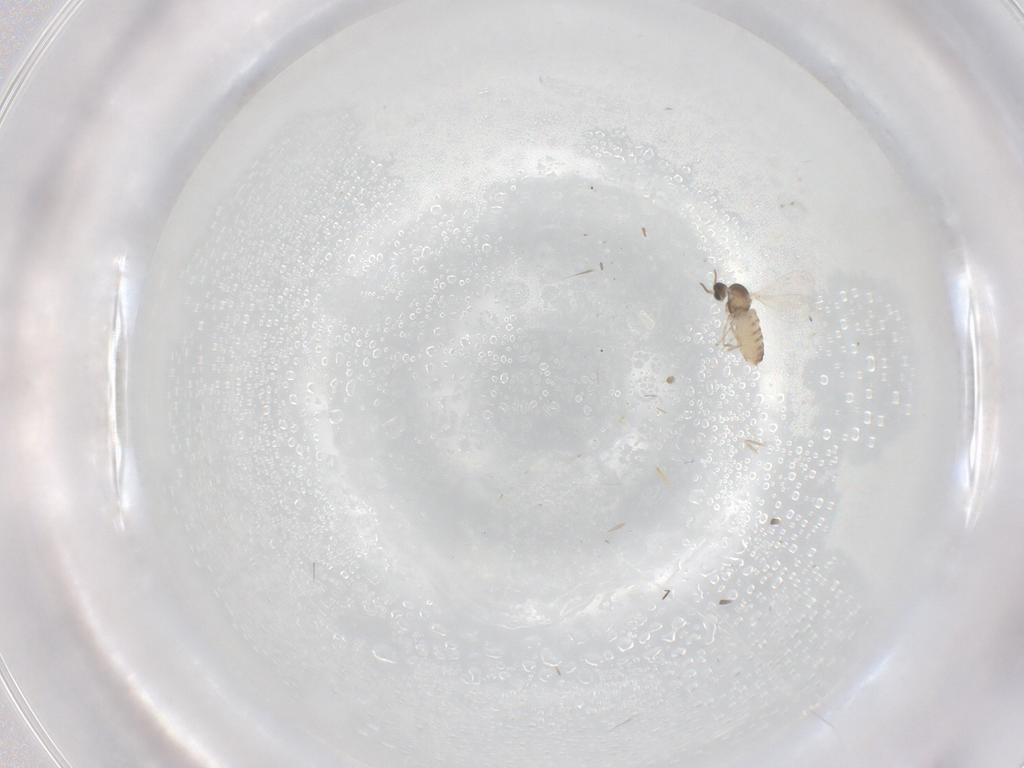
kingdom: Animalia
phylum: Arthropoda
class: Insecta
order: Diptera
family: Cecidomyiidae
